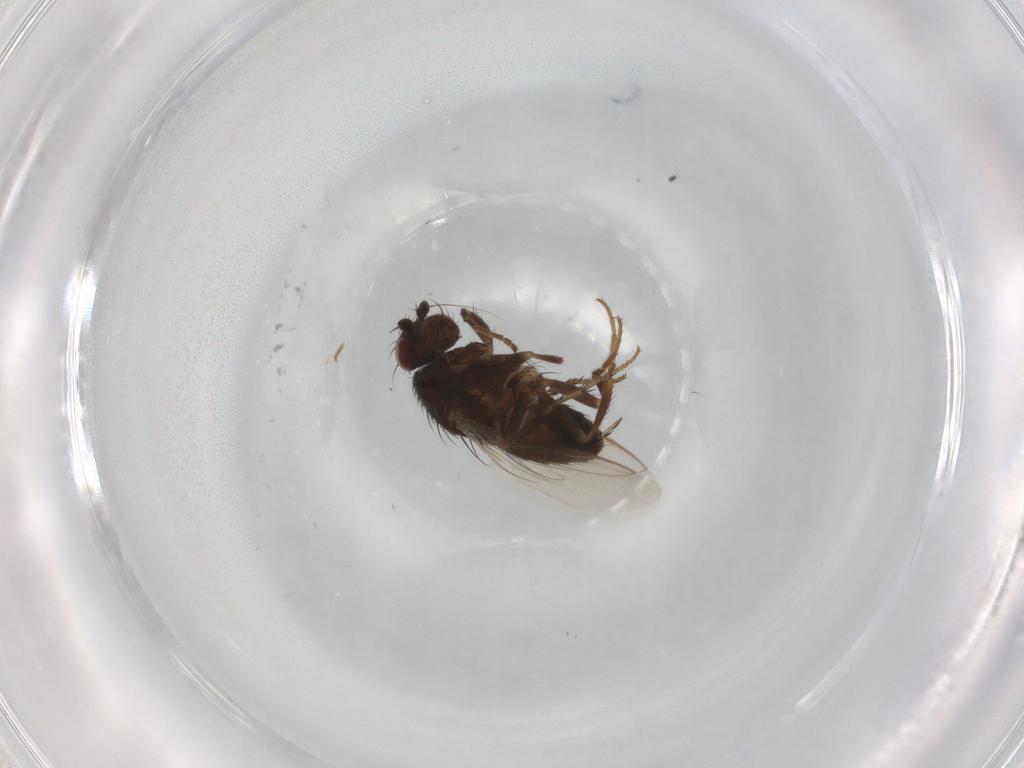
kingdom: Animalia
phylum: Arthropoda
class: Insecta
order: Diptera
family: Sphaeroceridae
